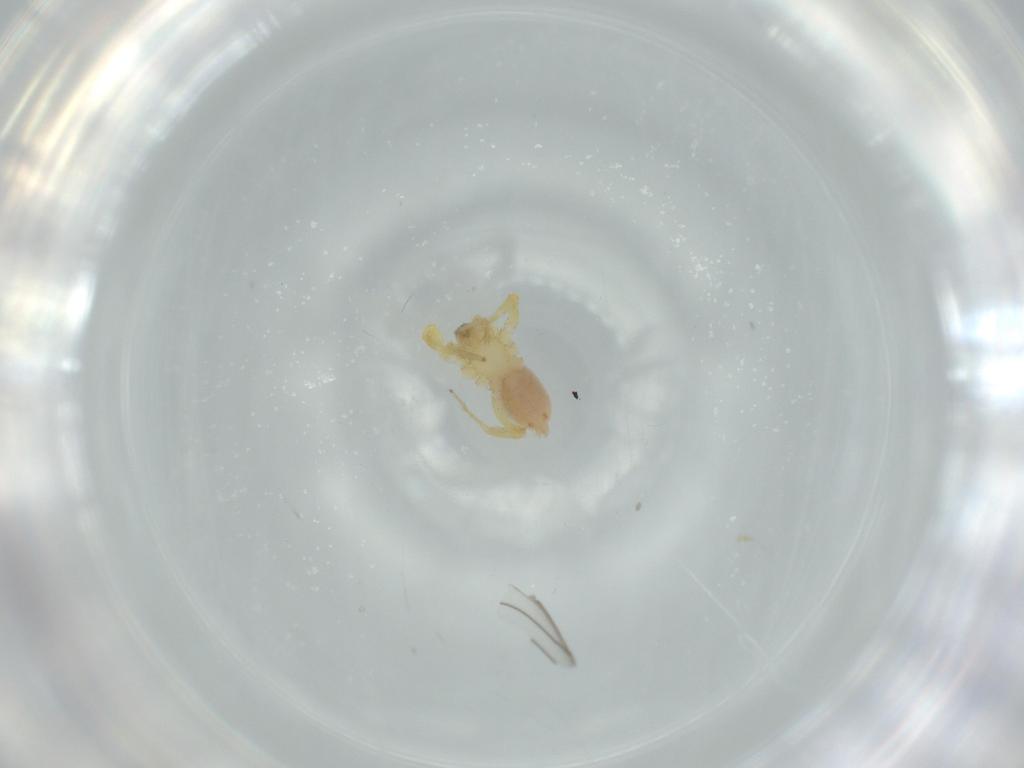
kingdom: Animalia
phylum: Arthropoda
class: Arachnida
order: Araneae
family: Oonopidae
